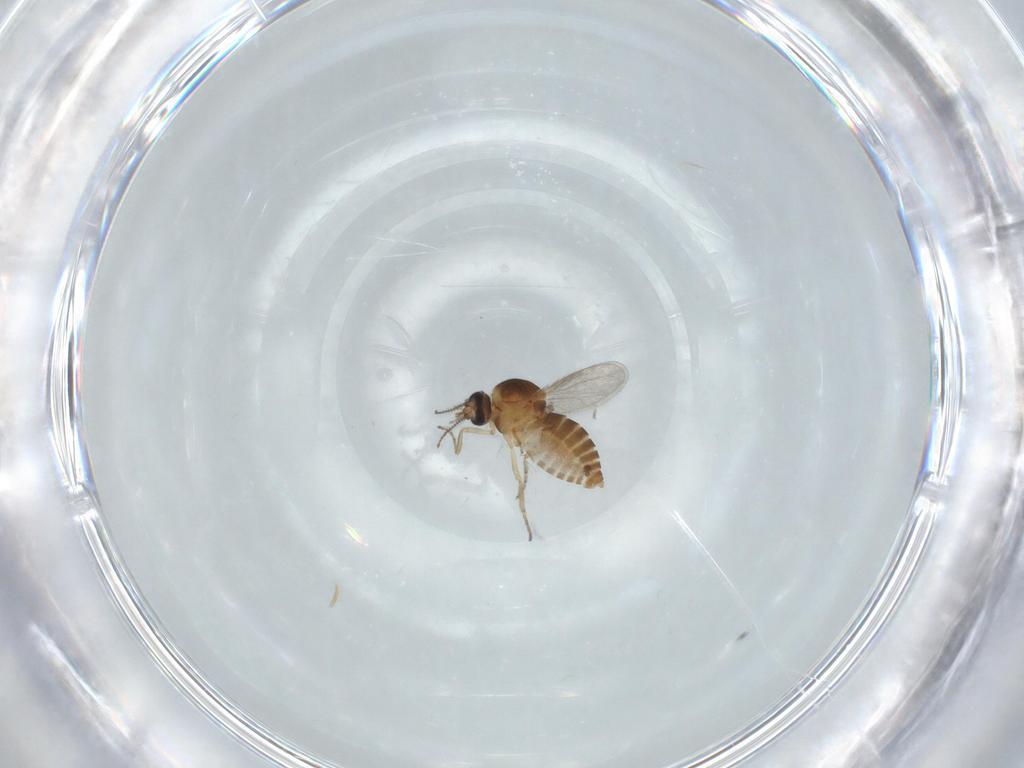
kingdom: Animalia
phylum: Arthropoda
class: Insecta
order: Diptera
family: Ceratopogonidae
